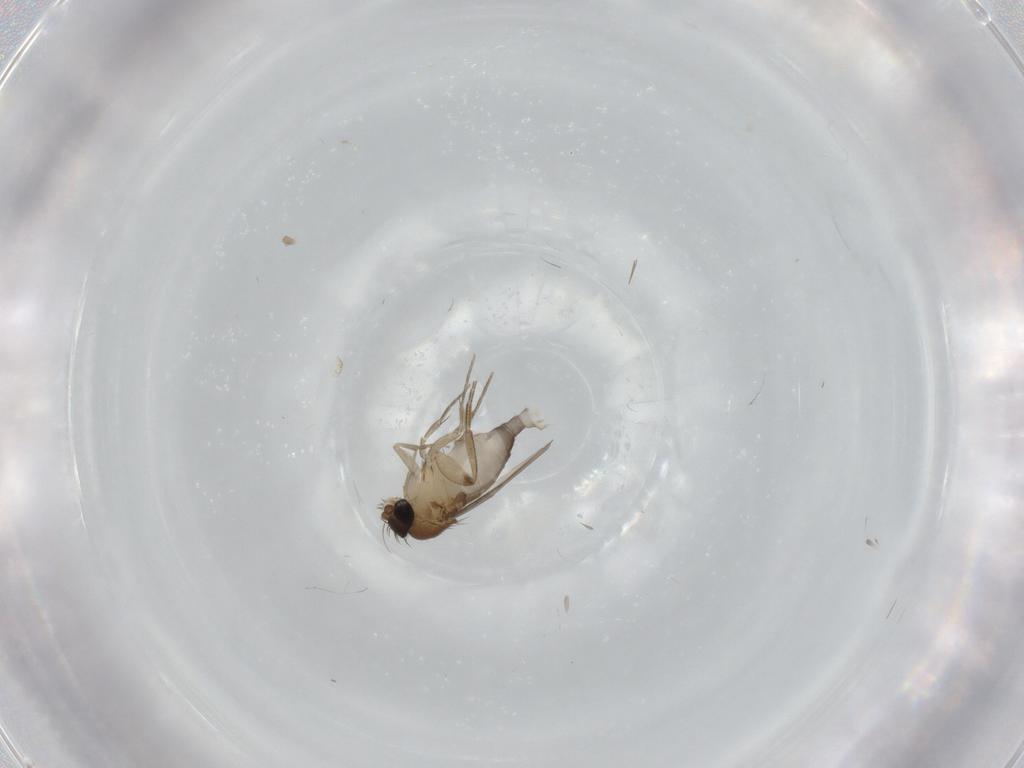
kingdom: Animalia
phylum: Arthropoda
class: Insecta
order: Diptera
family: Phoridae
